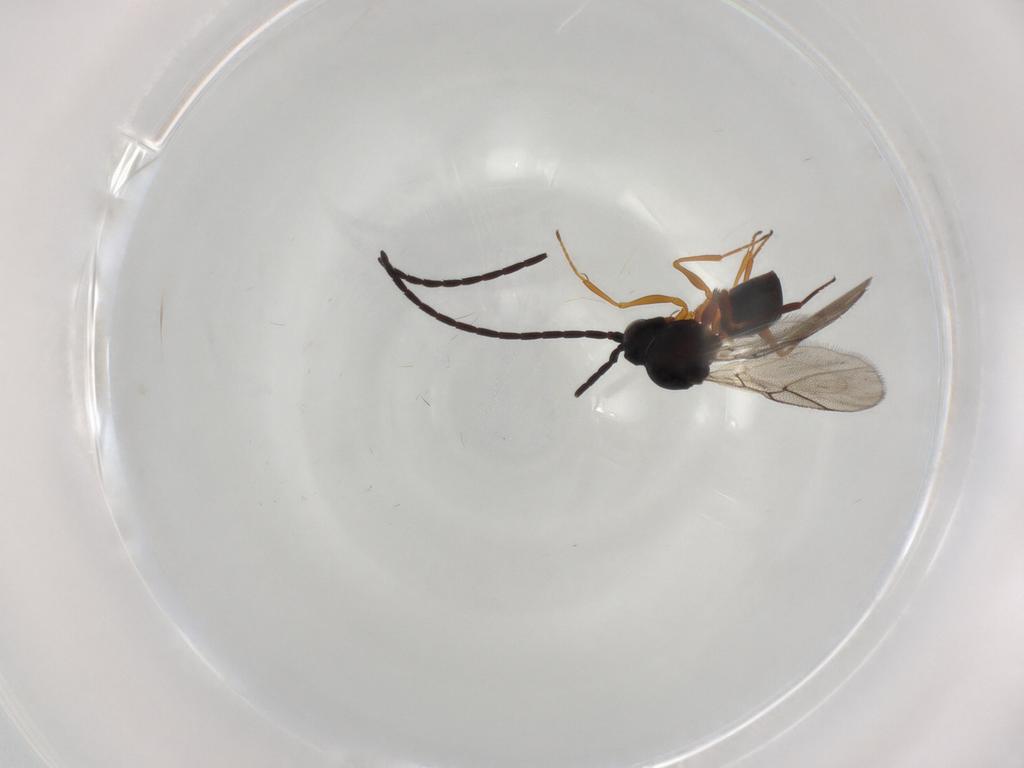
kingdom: Animalia
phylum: Arthropoda
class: Insecta
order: Hymenoptera
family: Figitidae
